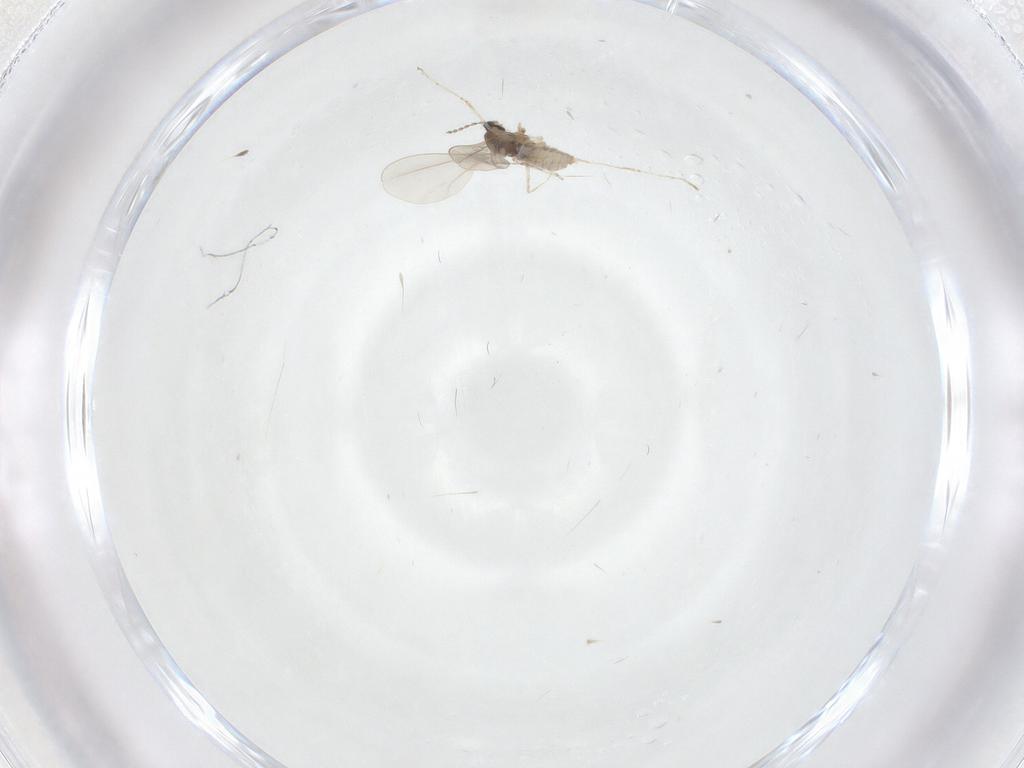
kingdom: Animalia
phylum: Arthropoda
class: Insecta
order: Diptera
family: Cecidomyiidae
